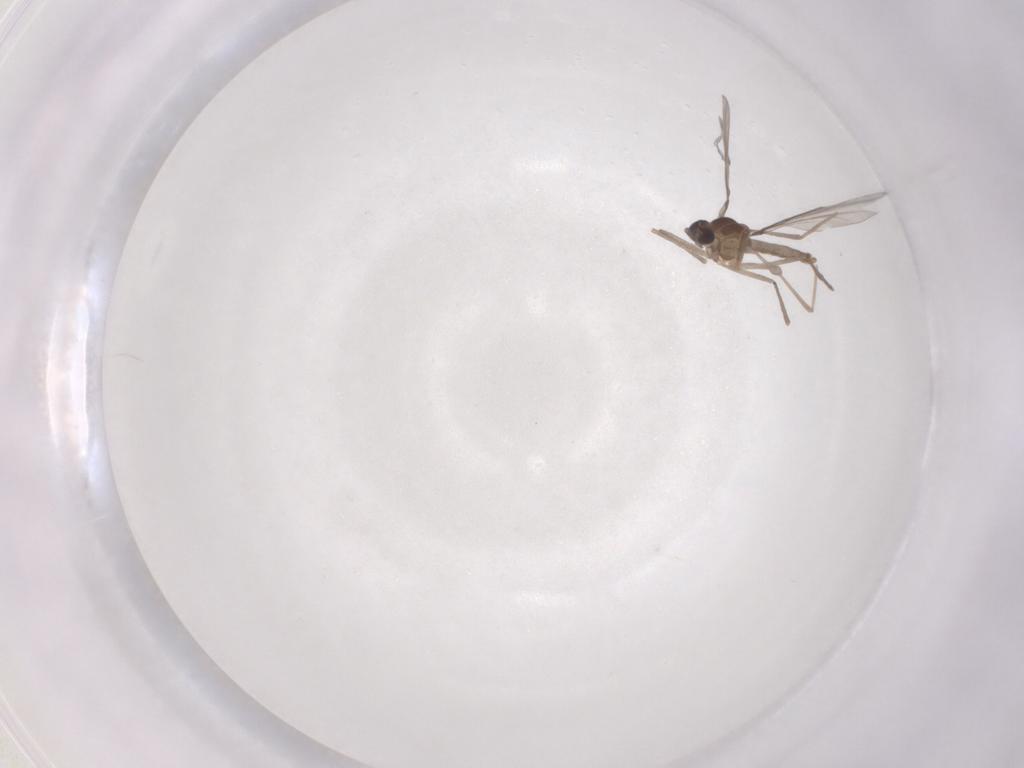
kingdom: Animalia
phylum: Arthropoda
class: Insecta
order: Diptera
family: Cecidomyiidae
